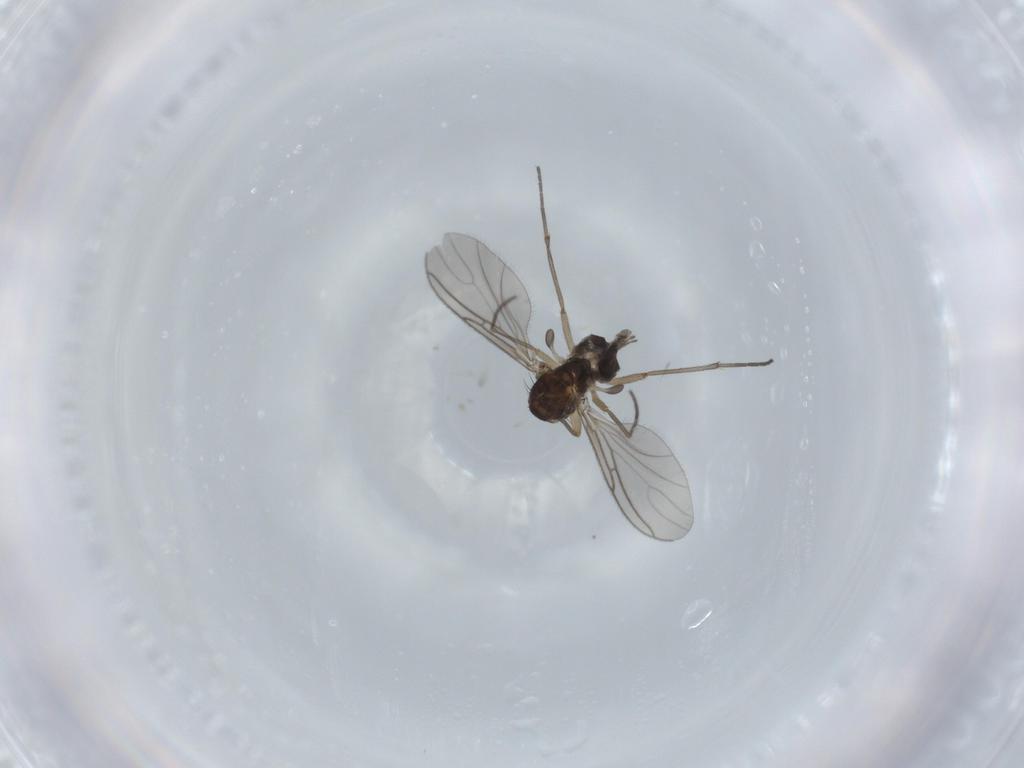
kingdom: Animalia
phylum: Arthropoda
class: Insecta
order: Diptera
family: Sciaridae
